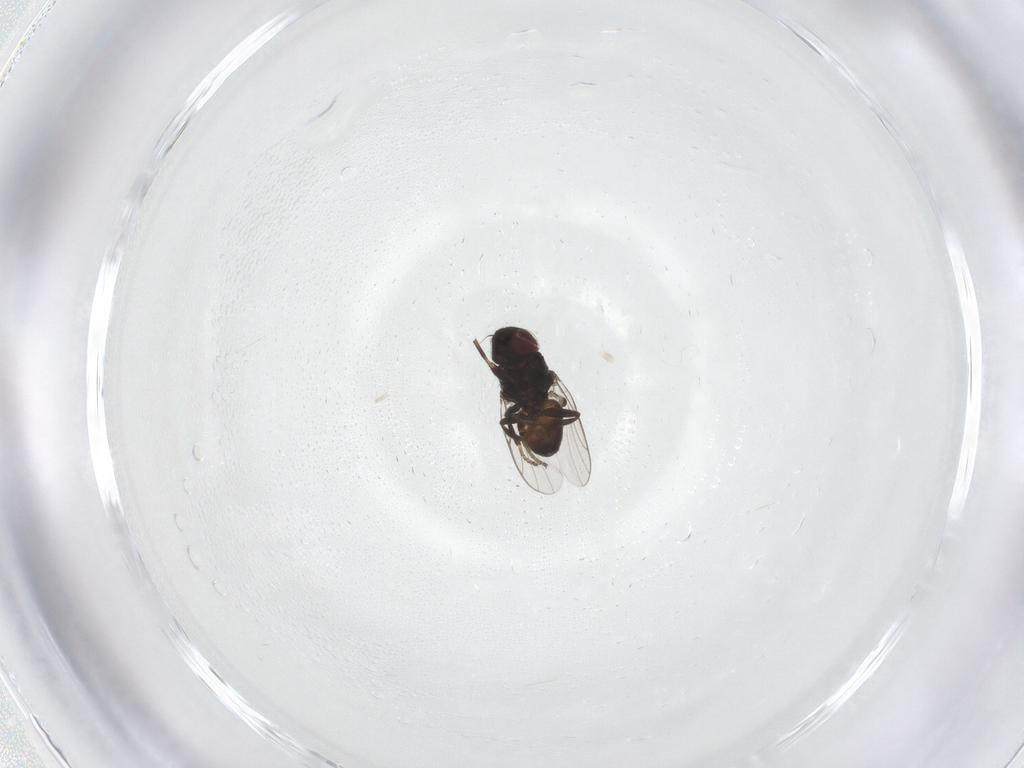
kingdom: Animalia
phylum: Arthropoda
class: Insecta
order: Diptera
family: Chloropidae
